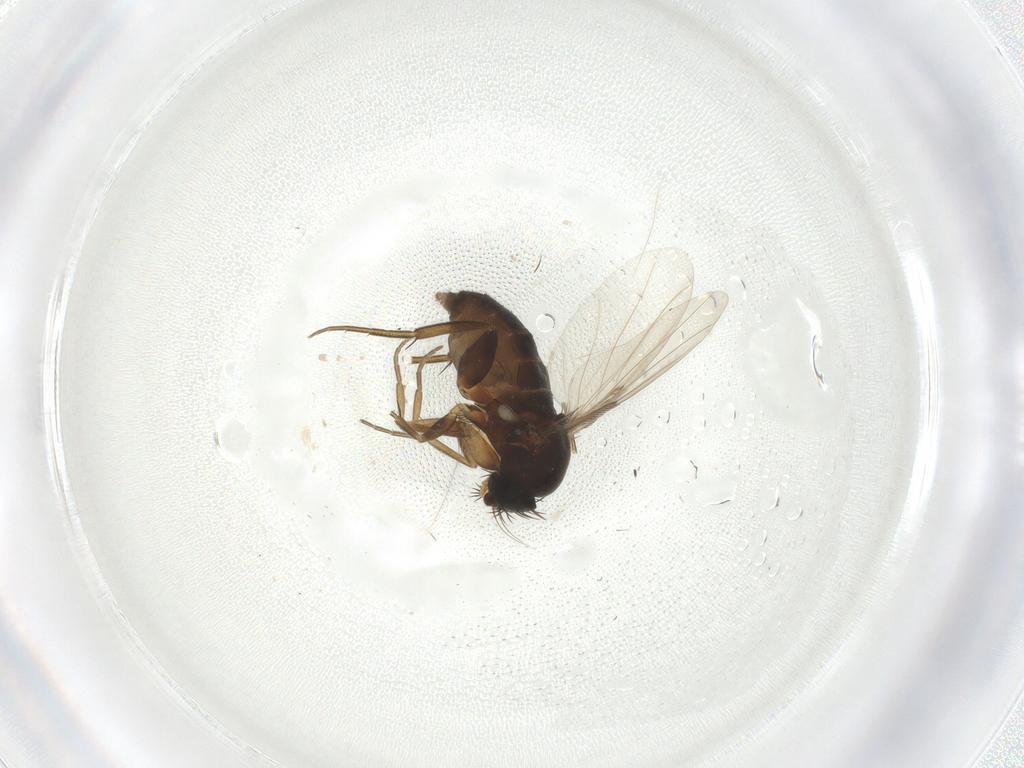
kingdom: Animalia
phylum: Arthropoda
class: Insecta
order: Diptera
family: Phoridae
